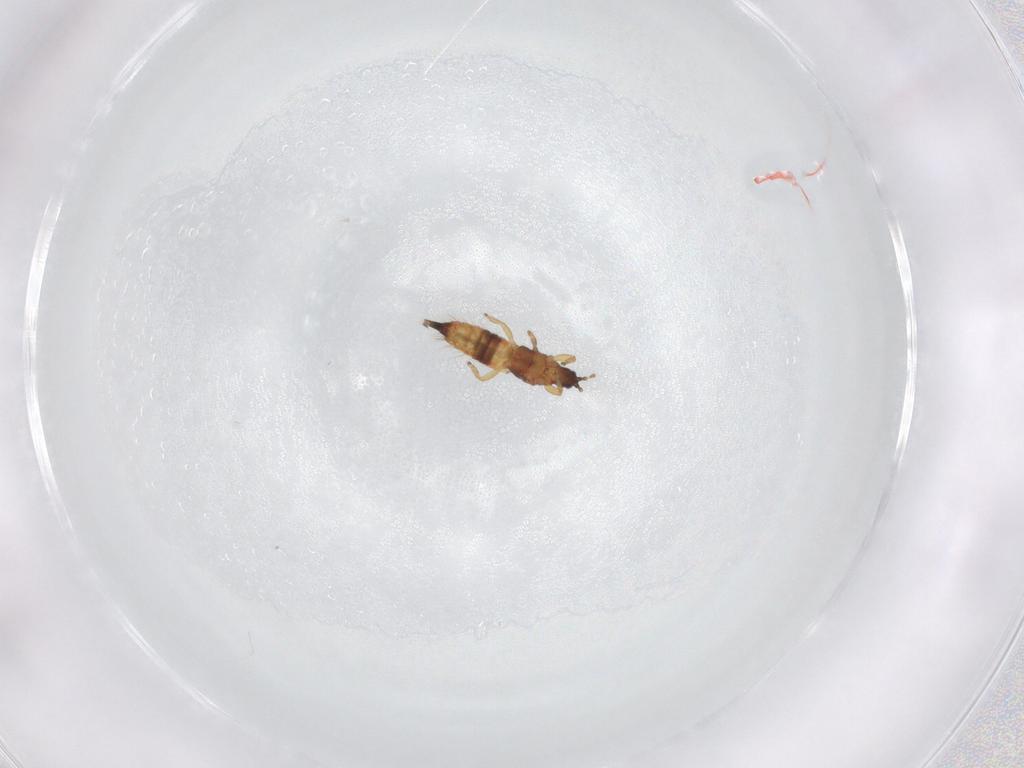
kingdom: Animalia
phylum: Arthropoda
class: Insecta
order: Thysanoptera
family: Phlaeothripidae
